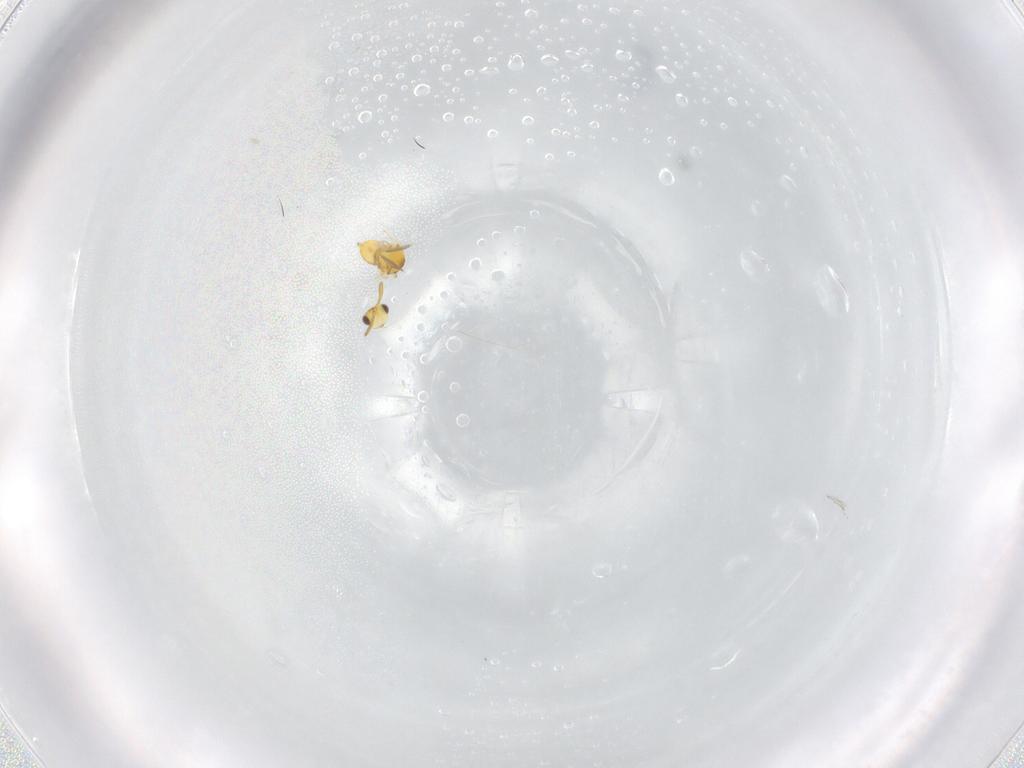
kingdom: Animalia
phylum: Arthropoda
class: Insecta
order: Hymenoptera
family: Aphelinidae
